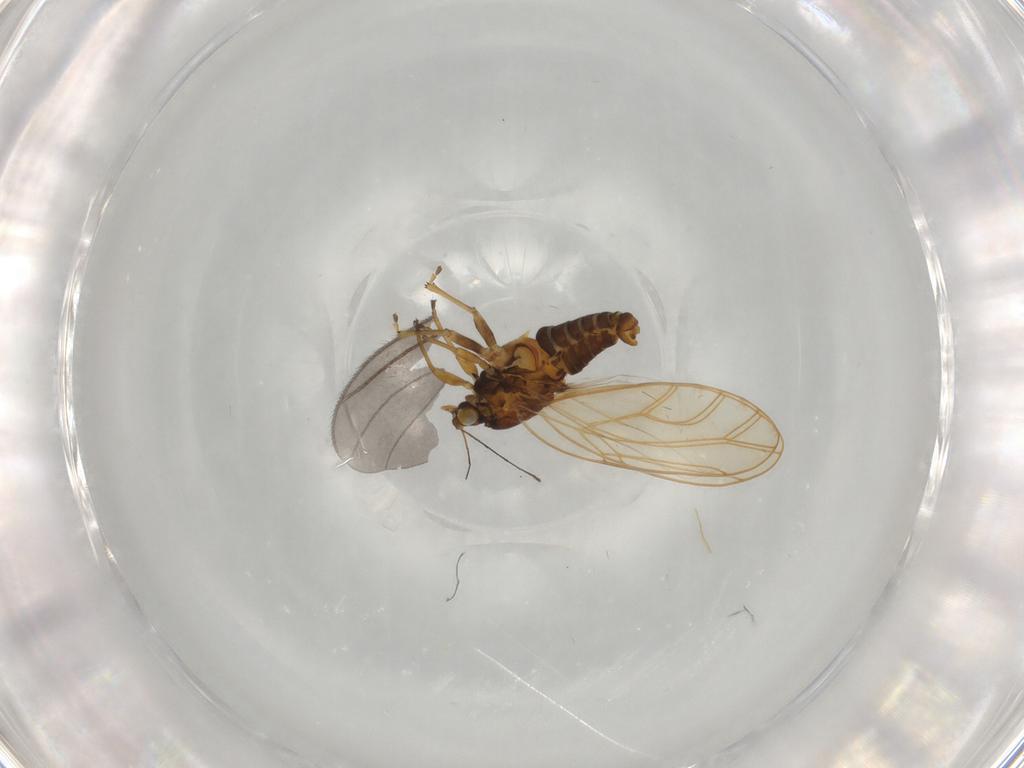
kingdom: Animalia
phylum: Arthropoda
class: Insecta
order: Hemiptera
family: Triozidae
